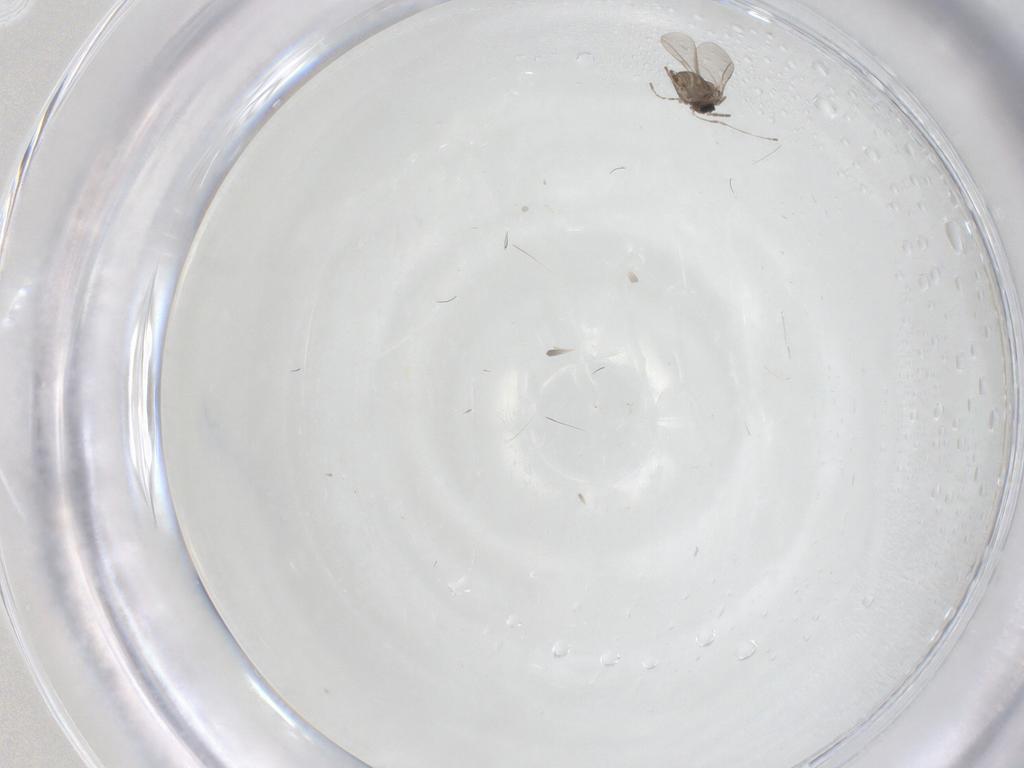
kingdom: Animalia
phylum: Arthropoda
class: Insecta
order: Diptera
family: Cecidomyiidae
